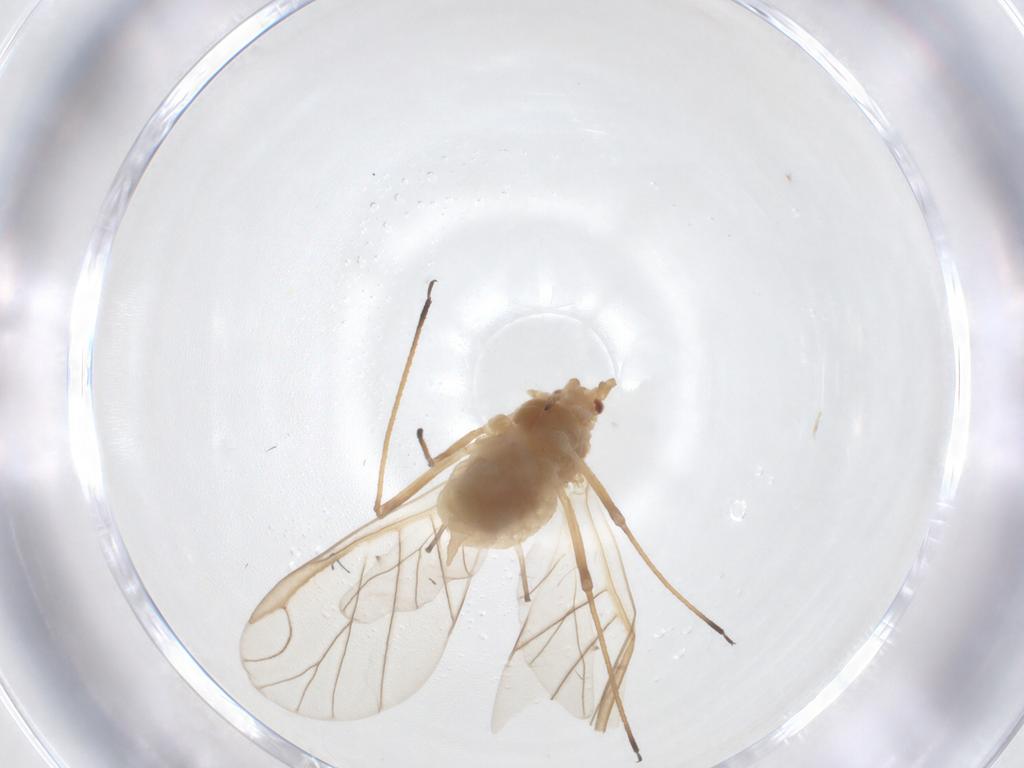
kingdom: Animalia
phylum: Arthropoda
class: Insecta
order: Hemiptera
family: Aphididae
